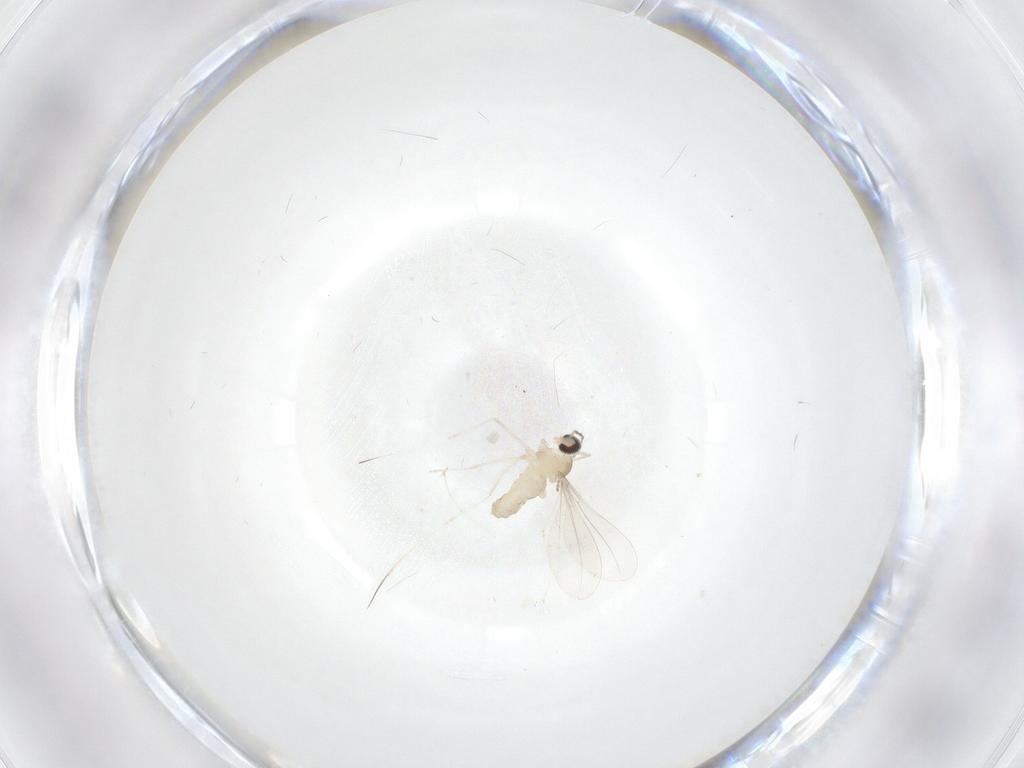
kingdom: Animalia
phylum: Arthropoda
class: Insecta
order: Diptera
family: Cecidomyiidae
